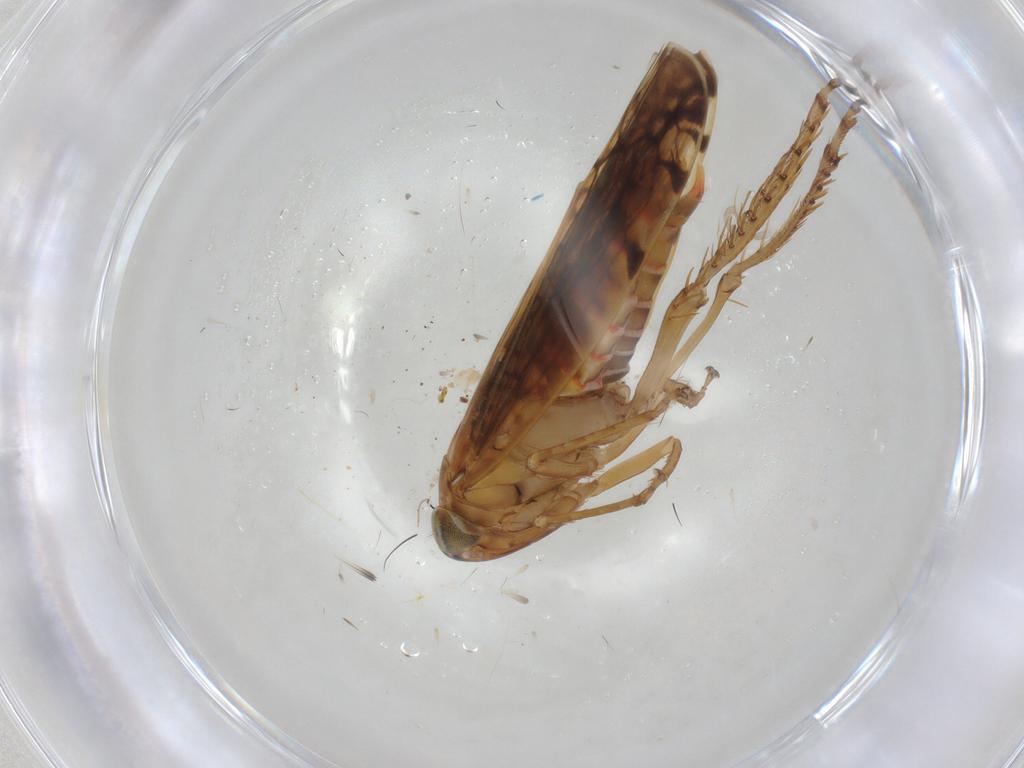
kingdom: Animalia
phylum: Arthropoda
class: Insecta
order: Hemiptera
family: Cicadellidae
